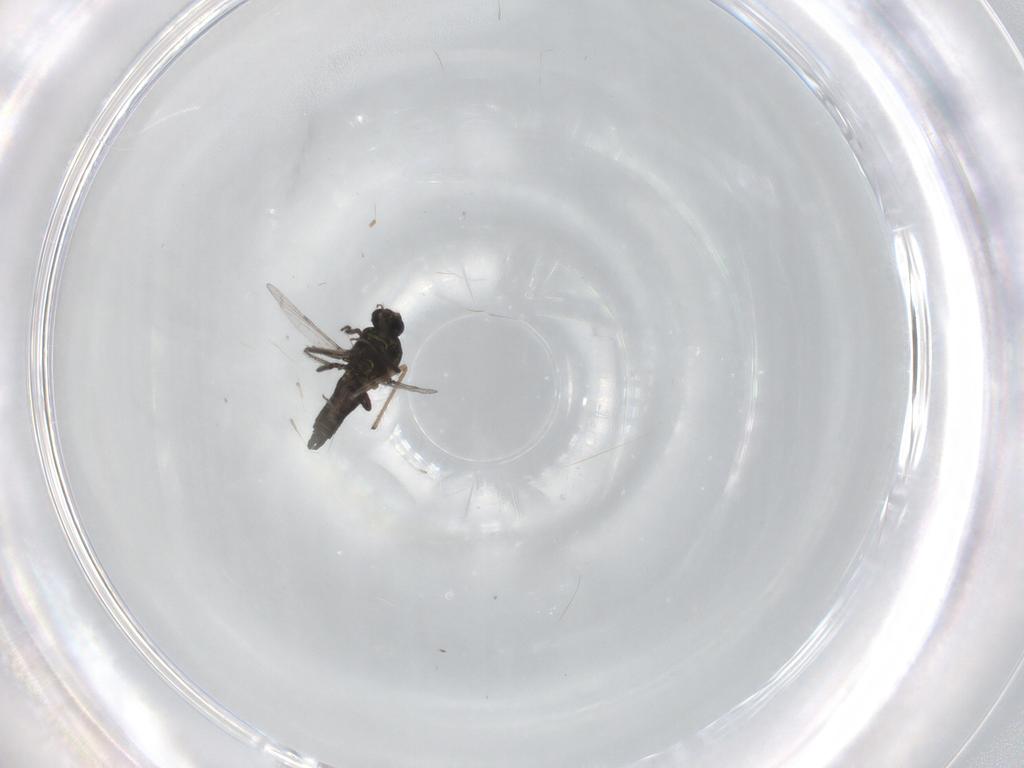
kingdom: Animalia
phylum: Arthropoda
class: Insecta
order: Diptera
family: Chironomidae
